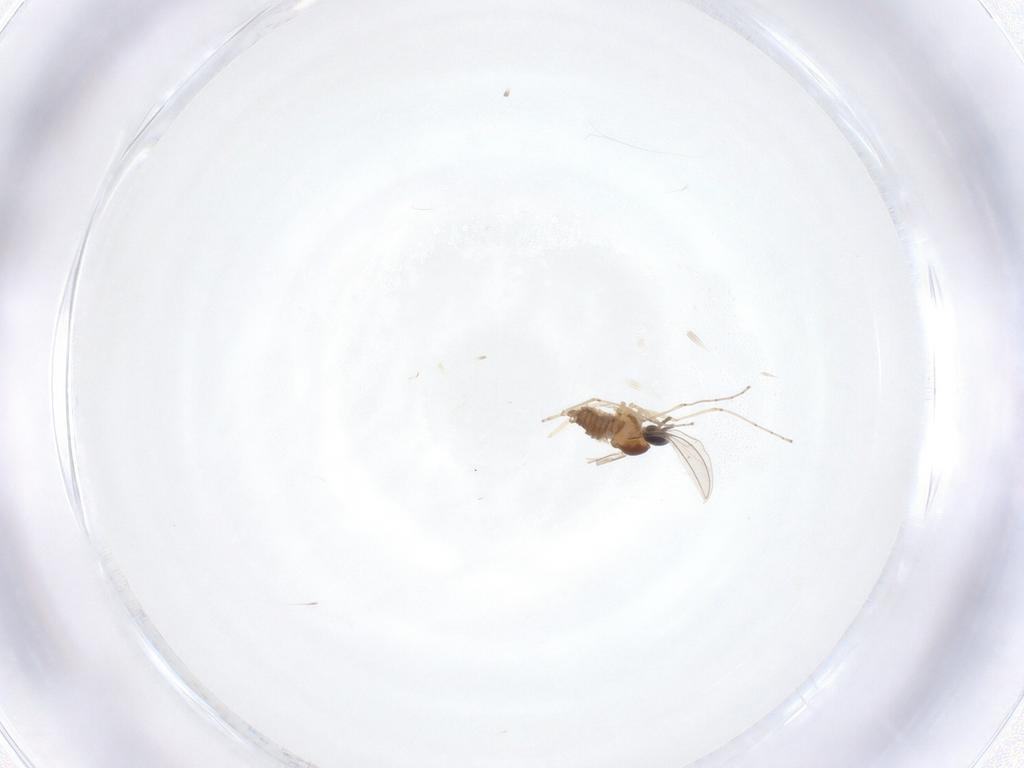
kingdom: Animalia
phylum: Arthropoda
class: Insecta
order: Diptera
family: Cecidomyiidae
